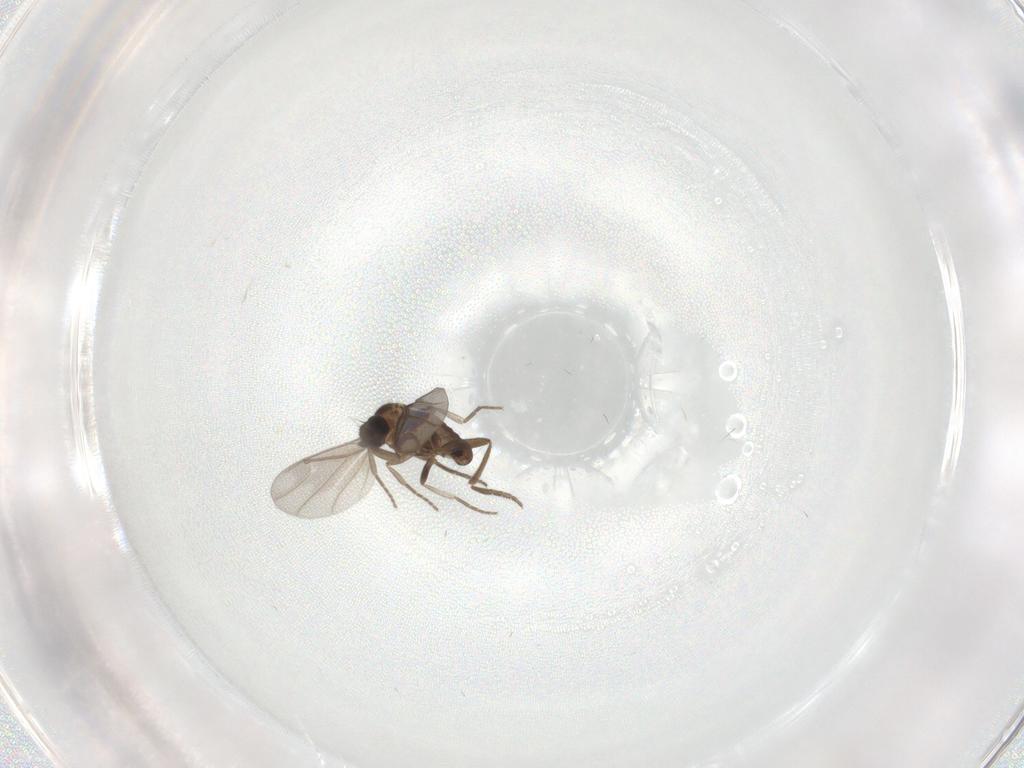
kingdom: Animalia
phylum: Arthropoda
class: Insecta
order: Diptera
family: Phoridae
